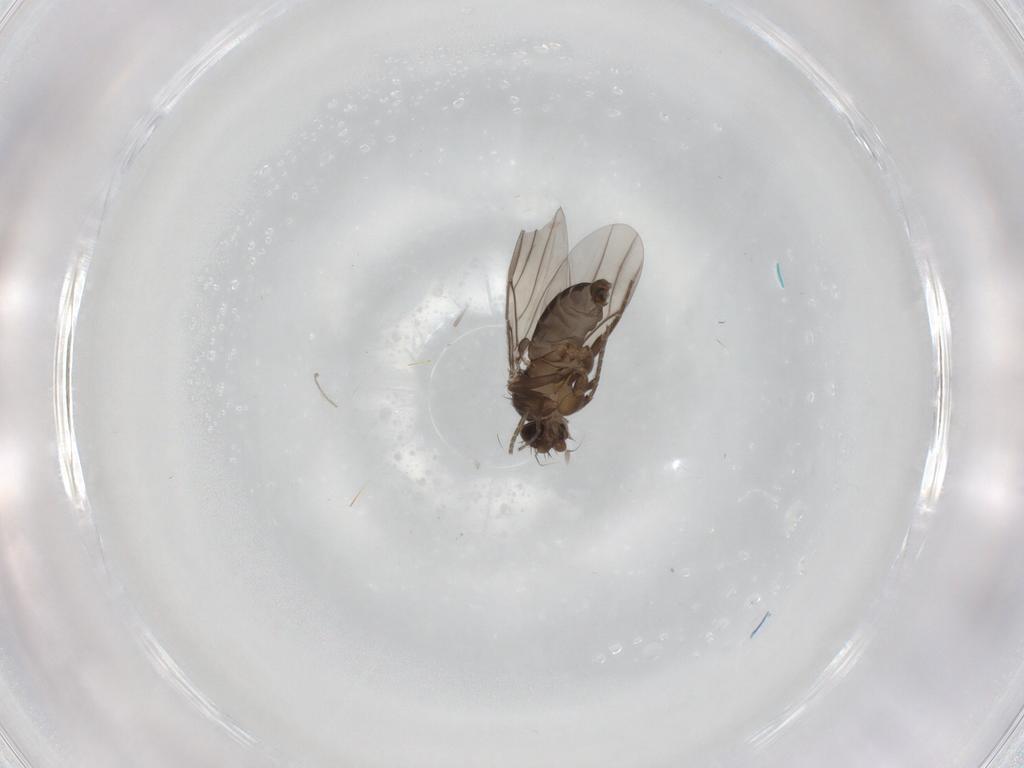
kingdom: Animalia
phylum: Arthropoda
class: Insecta
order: Diptera
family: Phoridae
